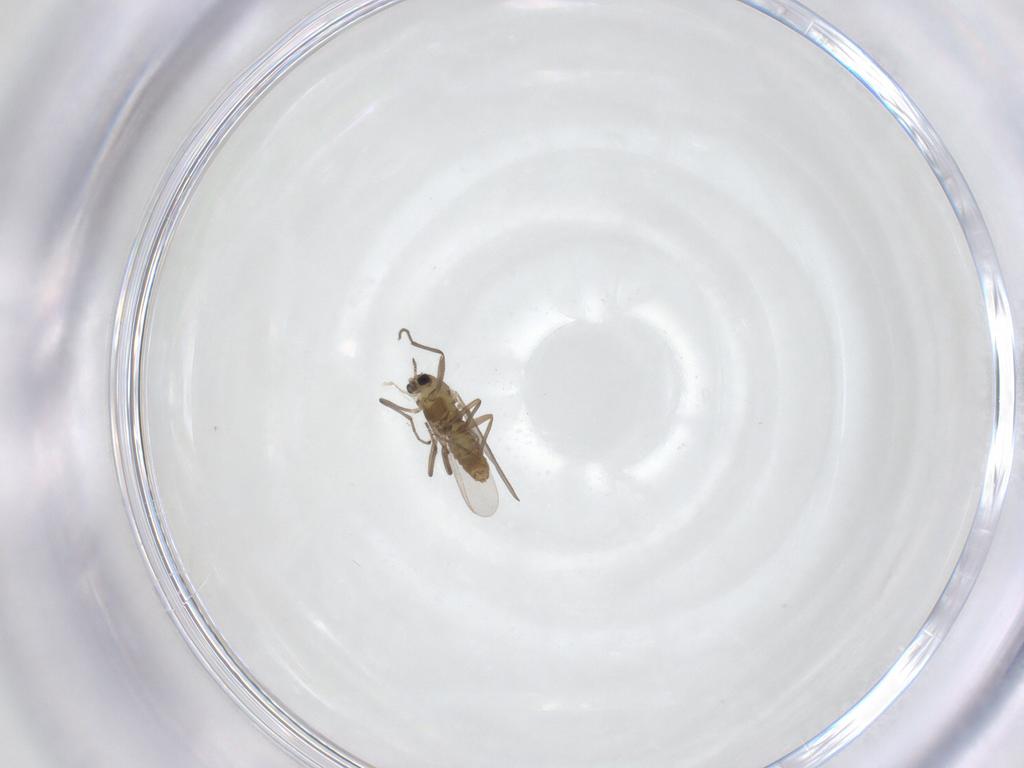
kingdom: Animalia
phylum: Arthropoda
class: Insecta
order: Diptera
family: Chironomidae
